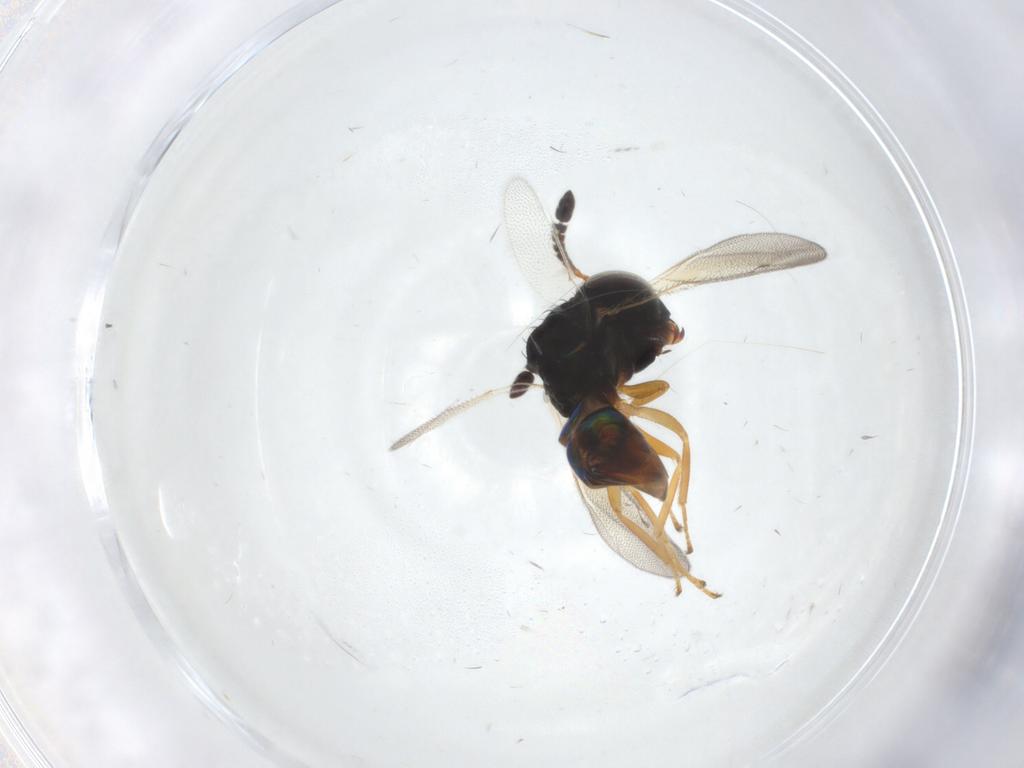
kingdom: Animalia
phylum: Arthropoda
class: Insecta
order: Hymenoptera
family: Pteromalidae
